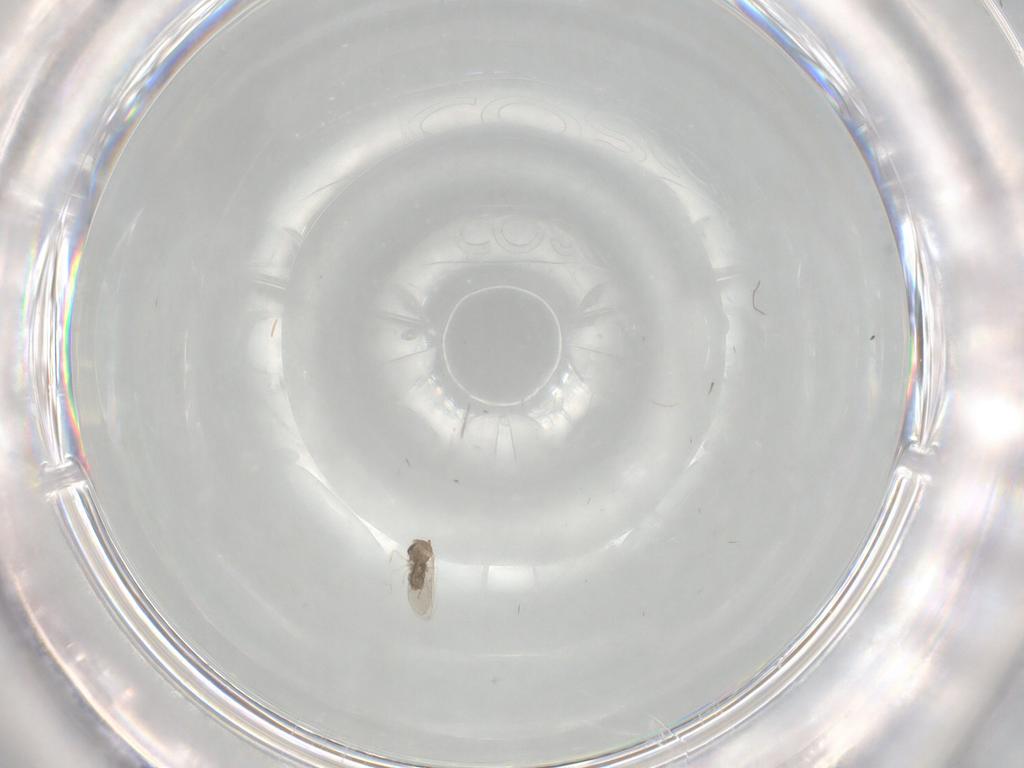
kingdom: Animalia
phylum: Arthropoda
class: Insecta
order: Diptera
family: Cecidomyiidae
